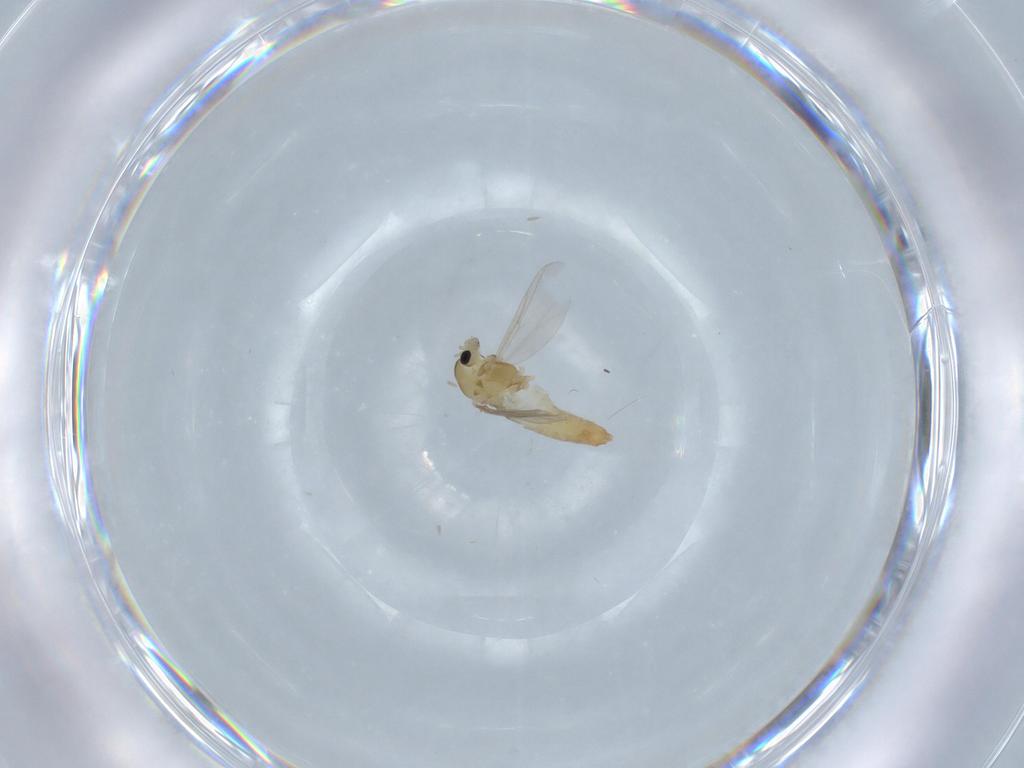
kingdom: Animalia
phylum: Arthropoda
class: Insecta
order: Diptera
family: Chironomidae
